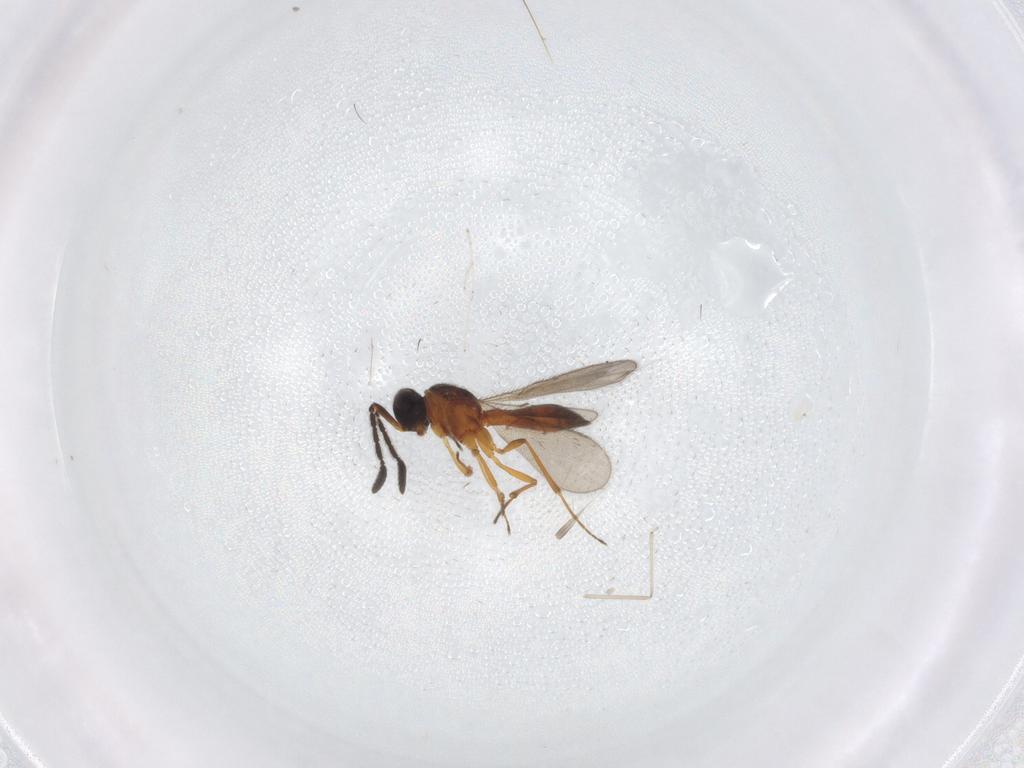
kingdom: Animalia
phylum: Arthropoda
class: Insecta
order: Hymenoptera
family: Scelionidae
